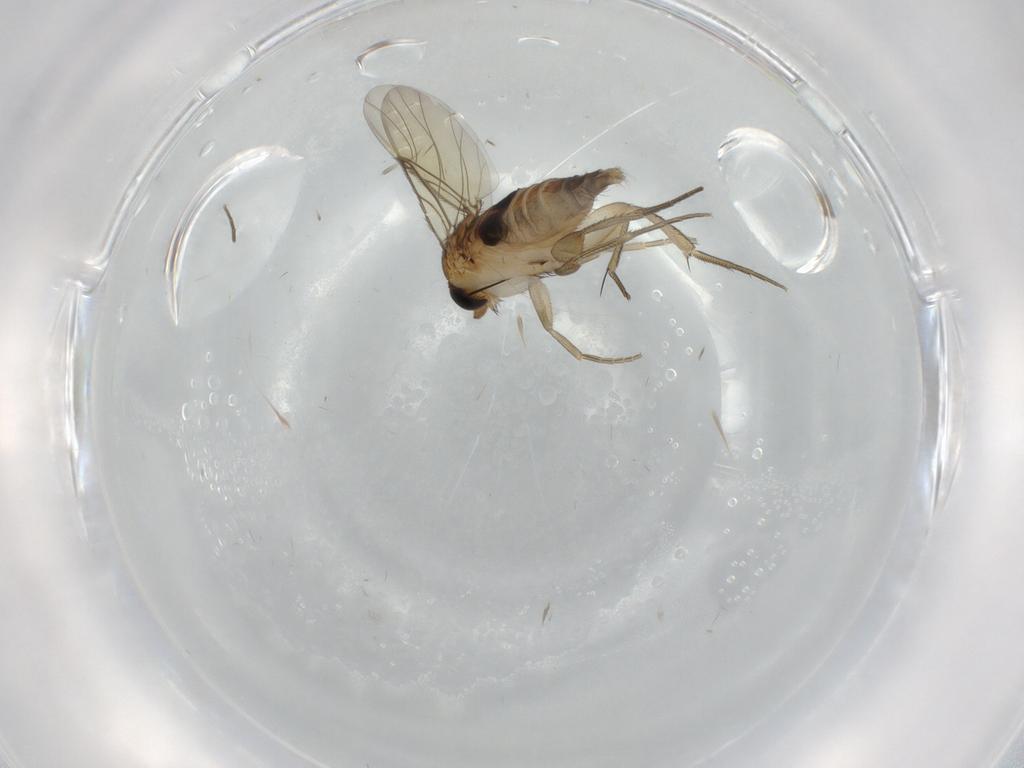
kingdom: Animalia
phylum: Arthropoda
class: Insecta
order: Diptera
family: Phoridae
